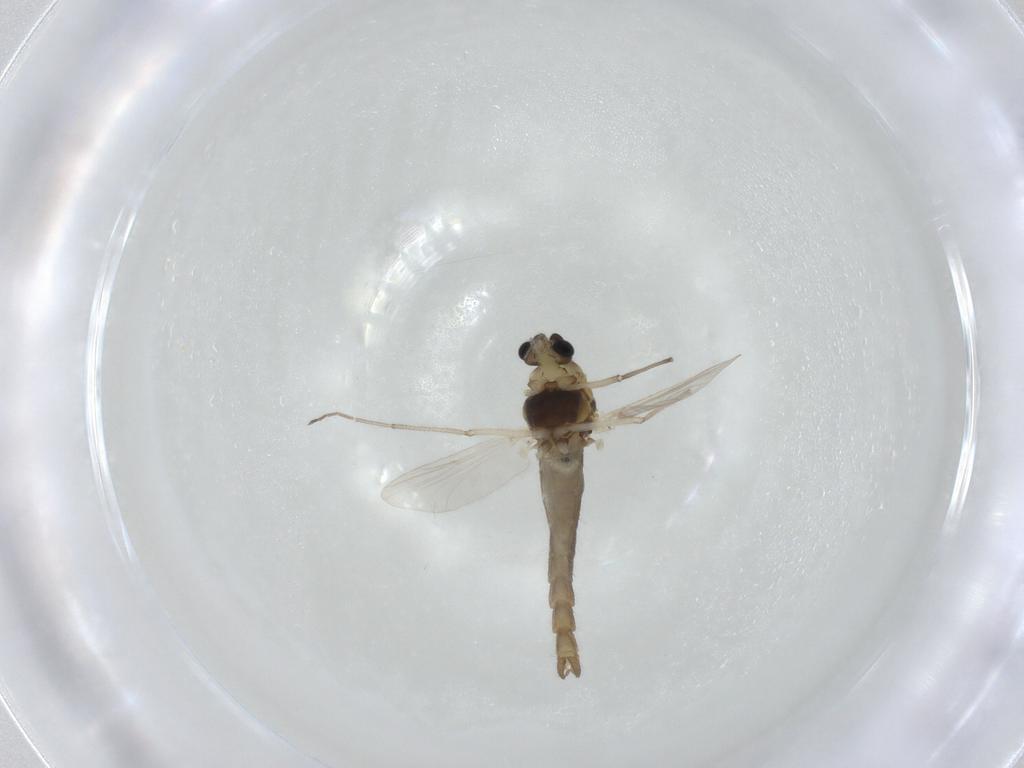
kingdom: Animalia
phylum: Arthropoda
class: Insecta
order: Diptera
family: Chironomidae
